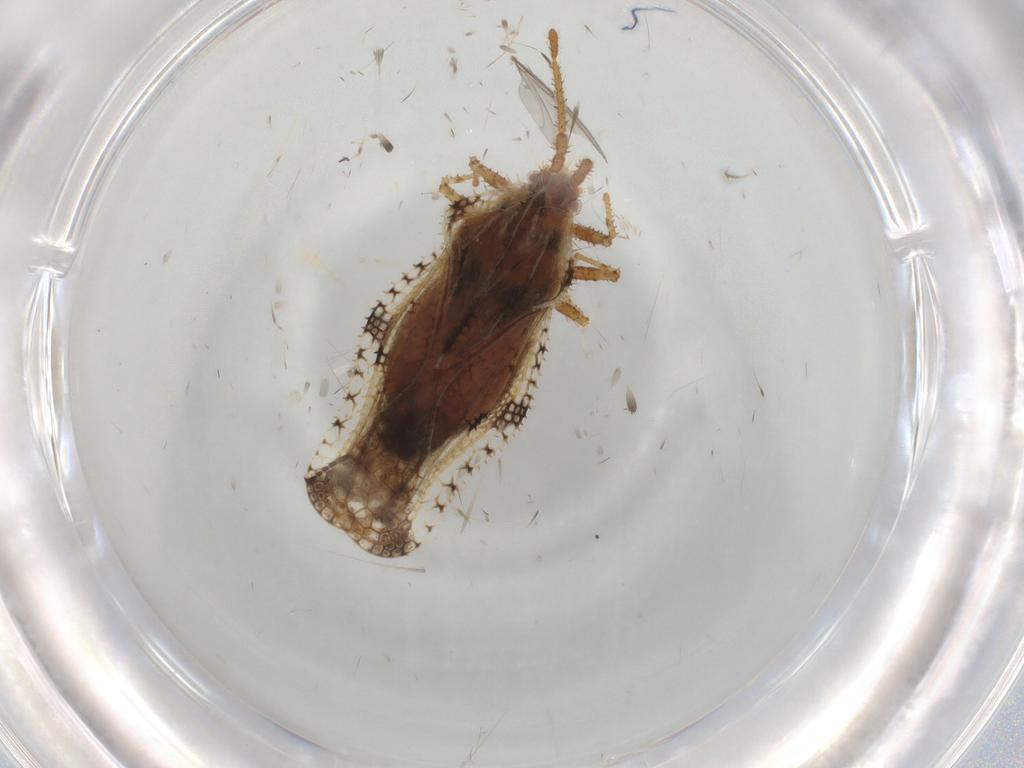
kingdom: Animalia
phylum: Arthropoda
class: Insecta
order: Hemiptera
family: Tingidae
